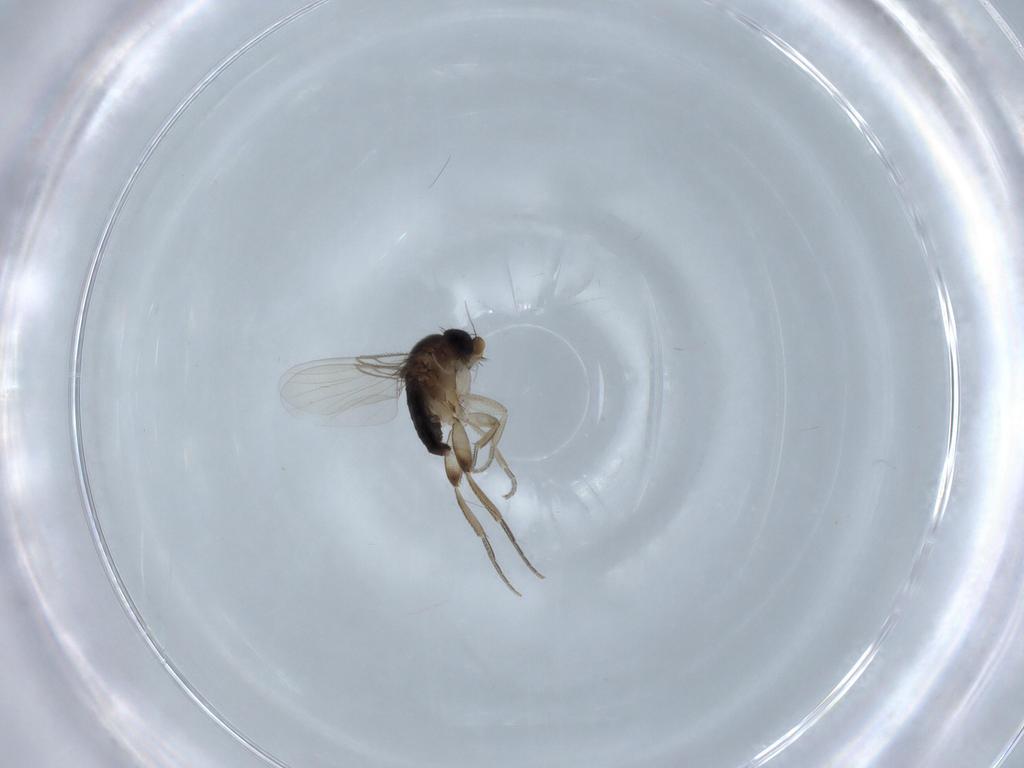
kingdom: Animalia
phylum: Arthropoda
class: Insecta
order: Diptera
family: Phoridae
